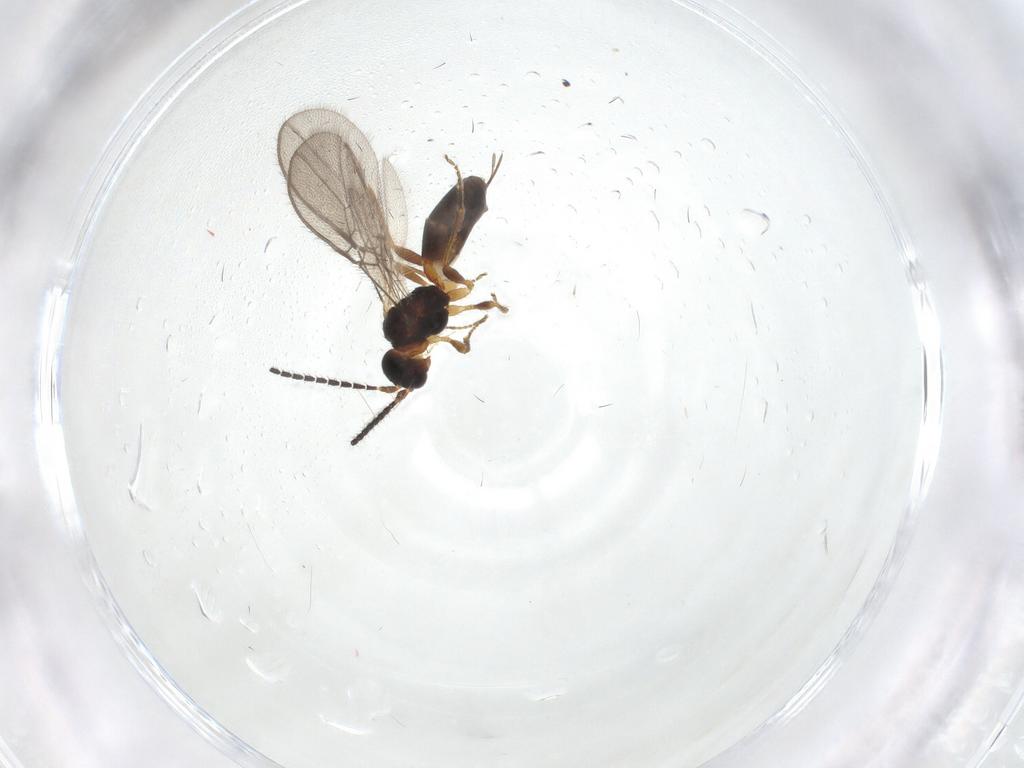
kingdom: Animalia
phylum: Arthropoda
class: Insecta
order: Hymenoptera
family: Braconidae
